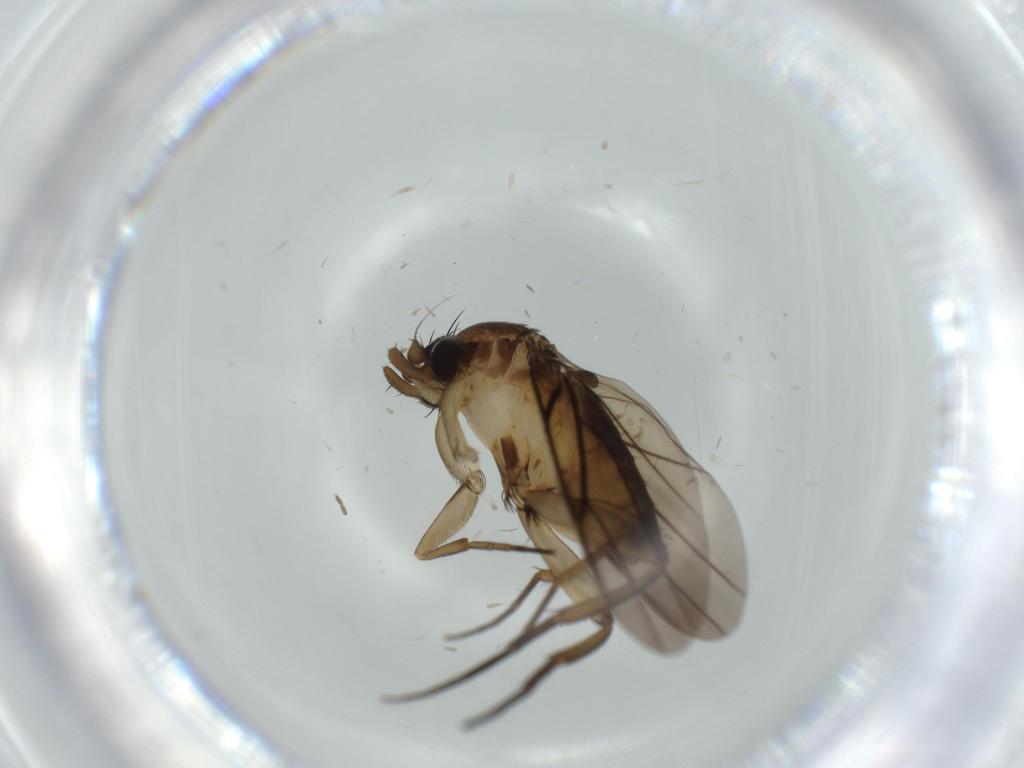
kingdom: Animalia
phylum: Arthropoda
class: Insecta
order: Diptera
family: Phoridae
